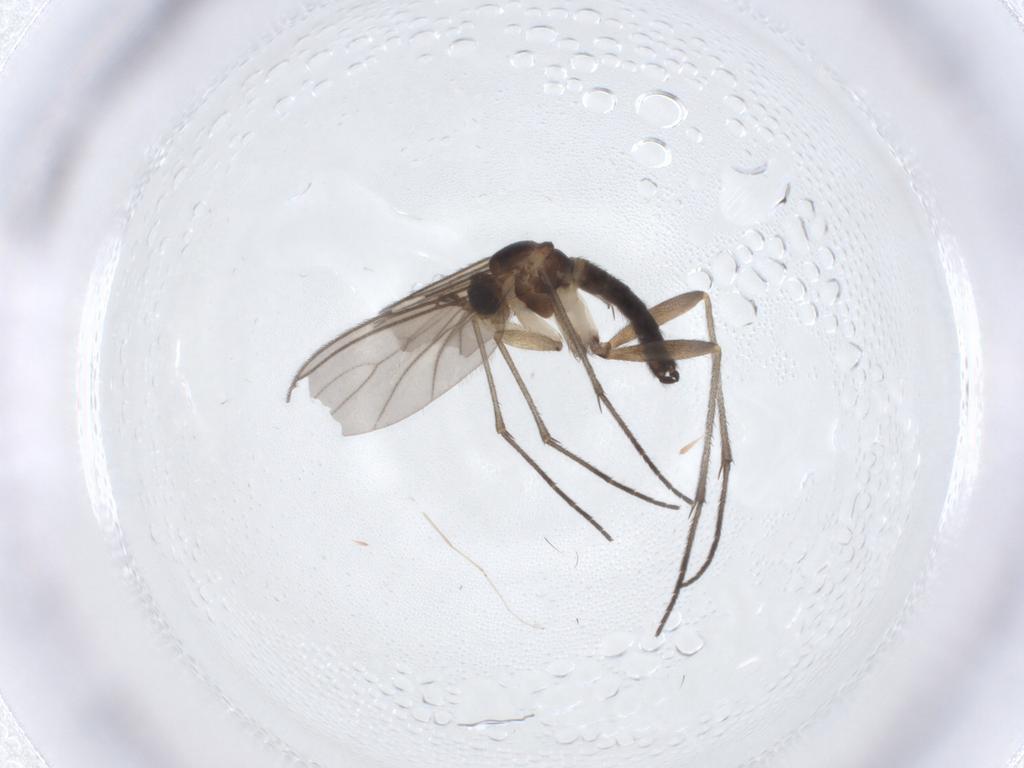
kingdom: Animalia
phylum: Arthropoda
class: Insecta
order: Diptera
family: Sciaridae
